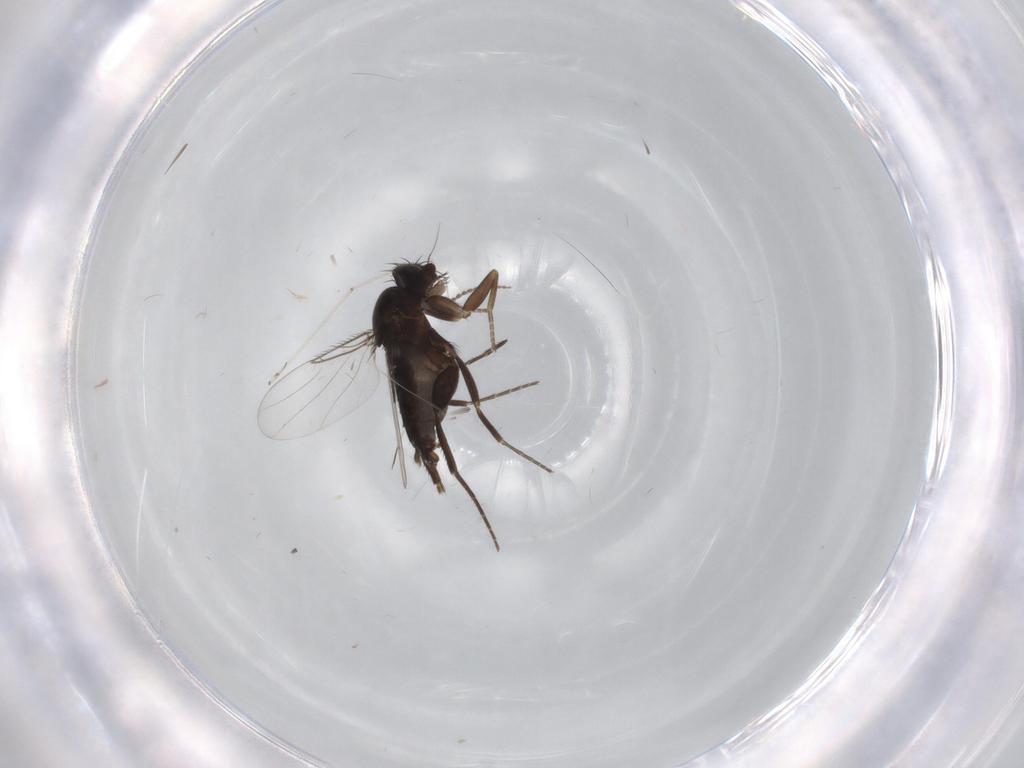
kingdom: Animalia
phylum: Arthropoda
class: Insecta
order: Diptera
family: Phoridae
